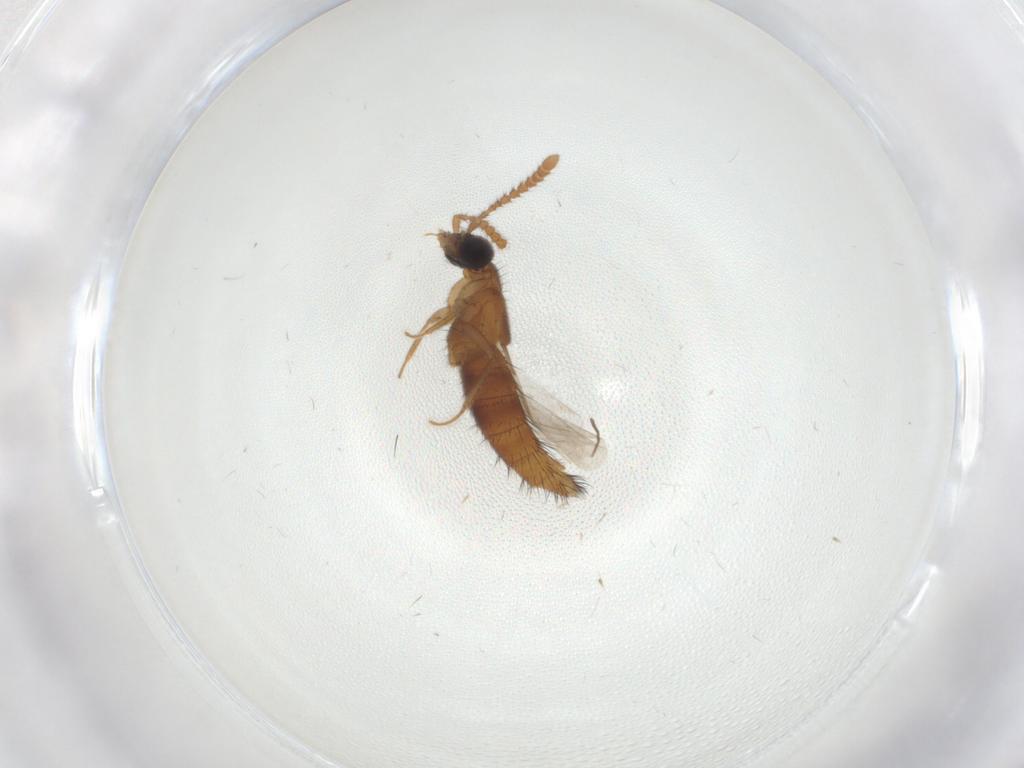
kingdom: Animalia
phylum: Arthropoda
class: Insecta
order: Coleoptera
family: Staphylinidae
